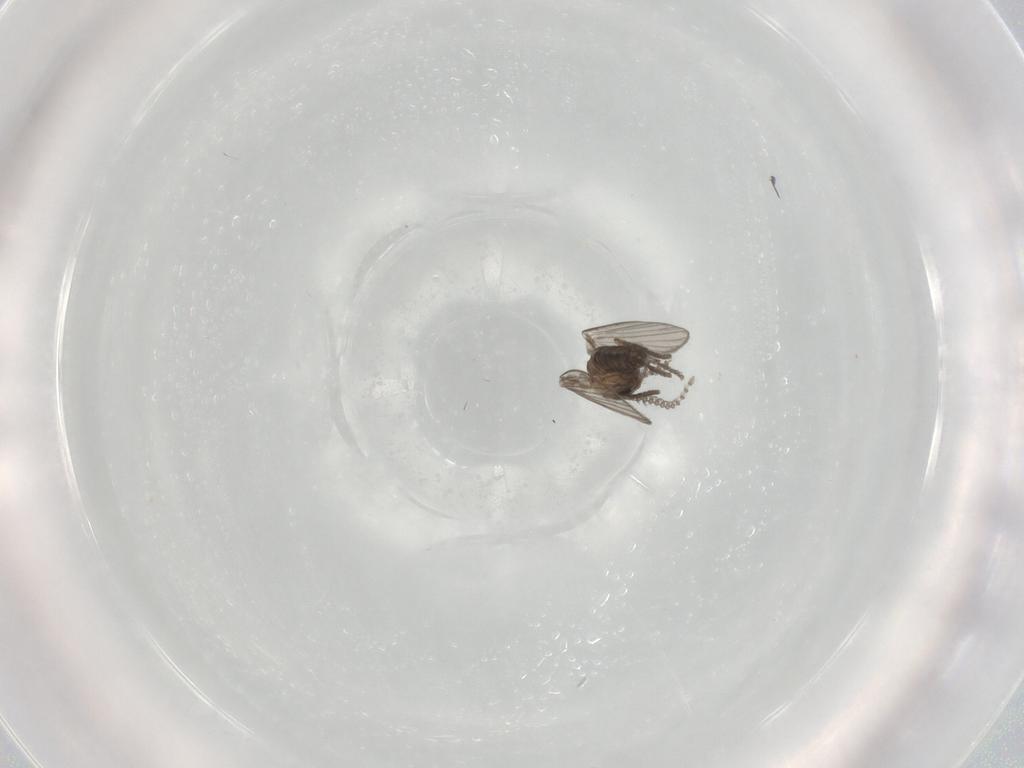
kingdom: Animalia
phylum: Arthropoda
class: Insecta
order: Diptera
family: Psychodidae
